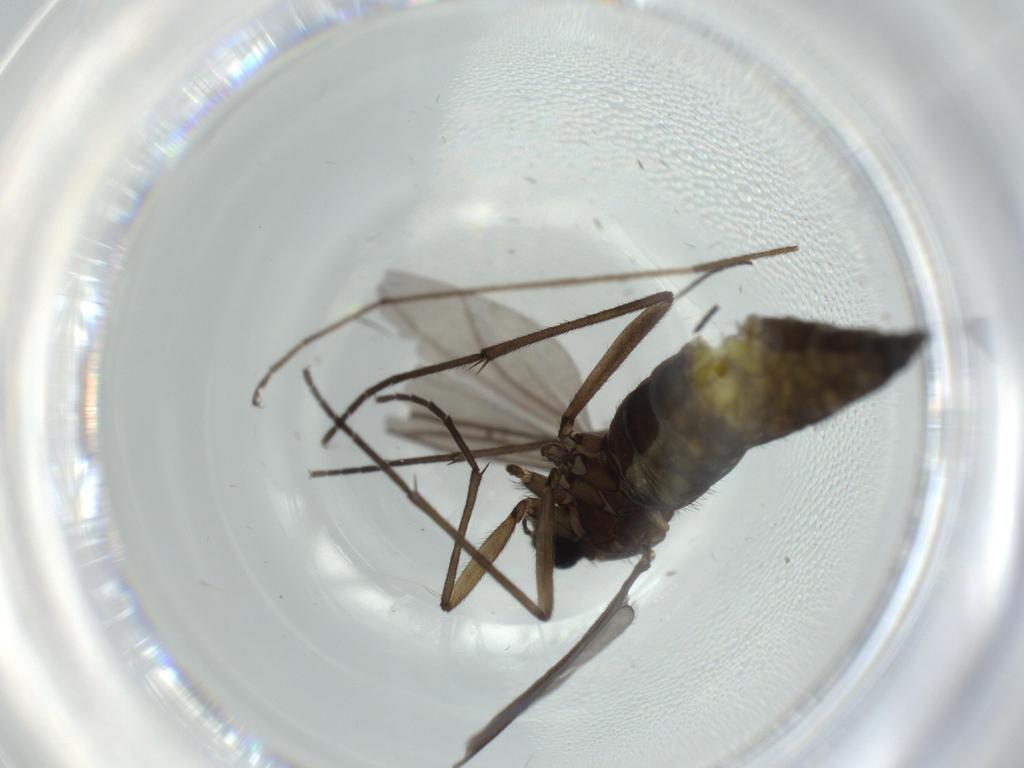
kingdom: Animalia
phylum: Arthropoda
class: Insecta
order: Diptera
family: Sciaridae
